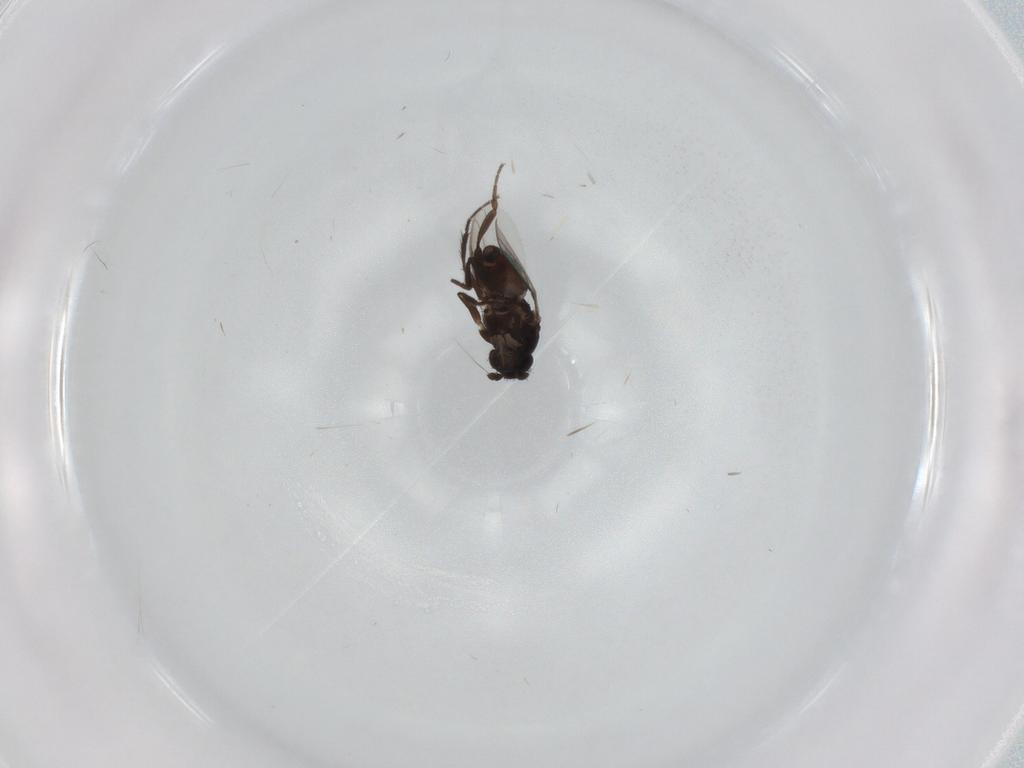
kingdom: Animalia
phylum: Arthropoda
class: Insecta
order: Diptera
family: Sphaeroceridae
